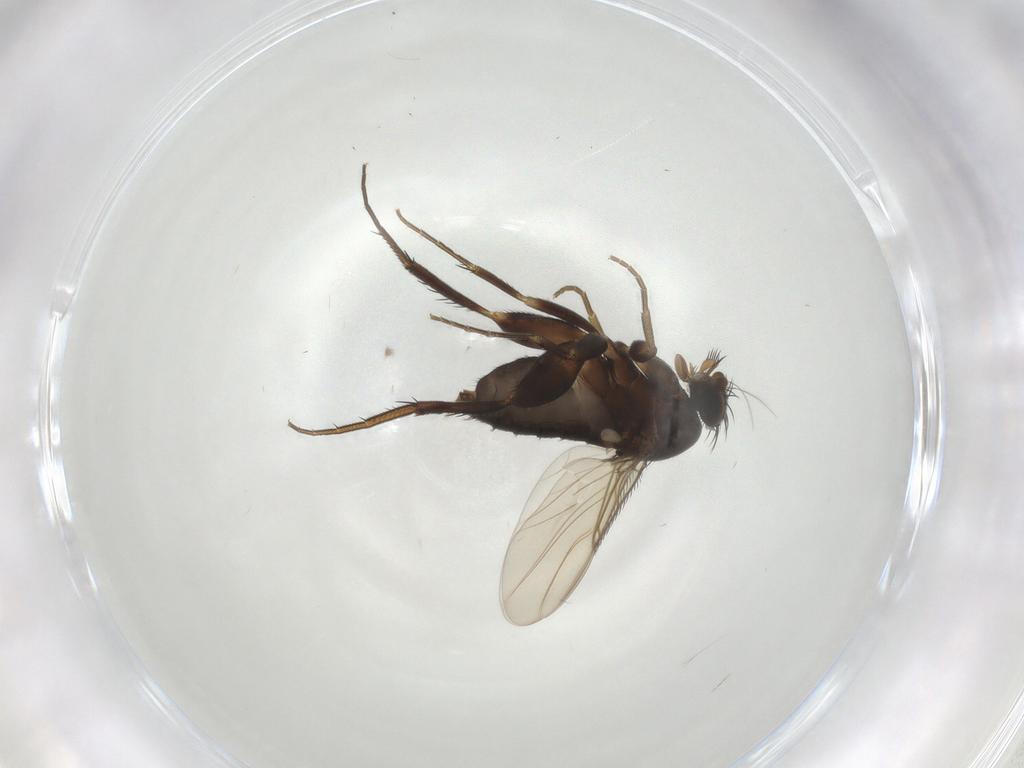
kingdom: Animalia
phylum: Arthropoda
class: Insecta
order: Diptera
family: Phoridae
